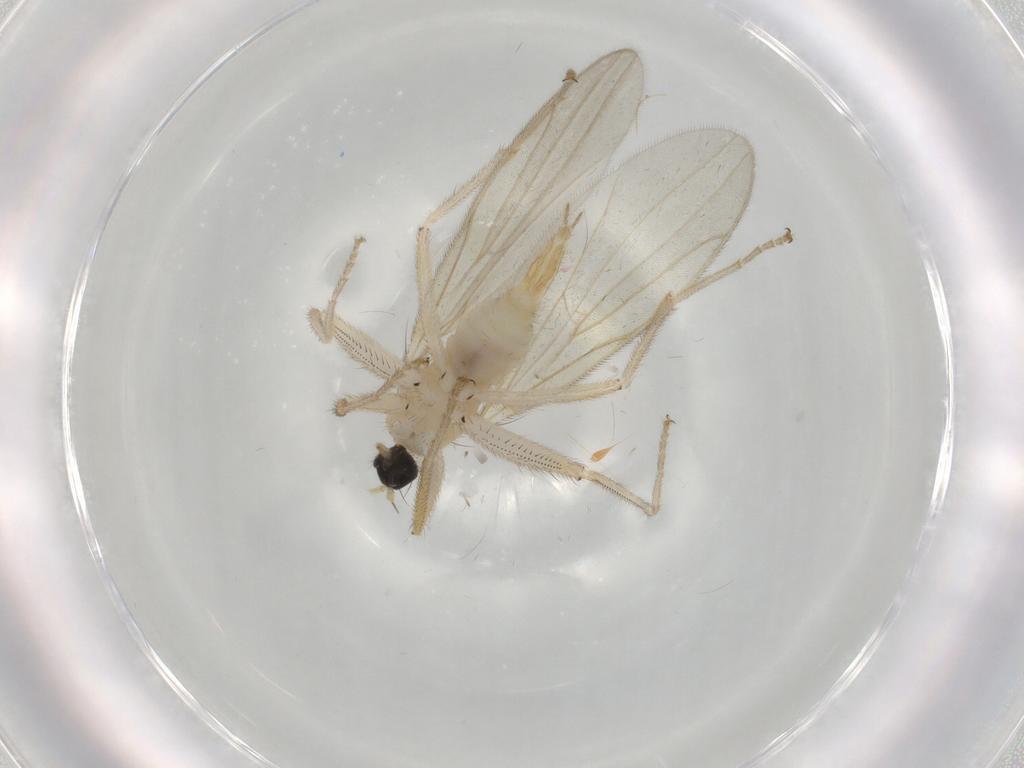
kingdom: Animalia
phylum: Arthropoda
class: Insecta
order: Diptera
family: Hybotidae
